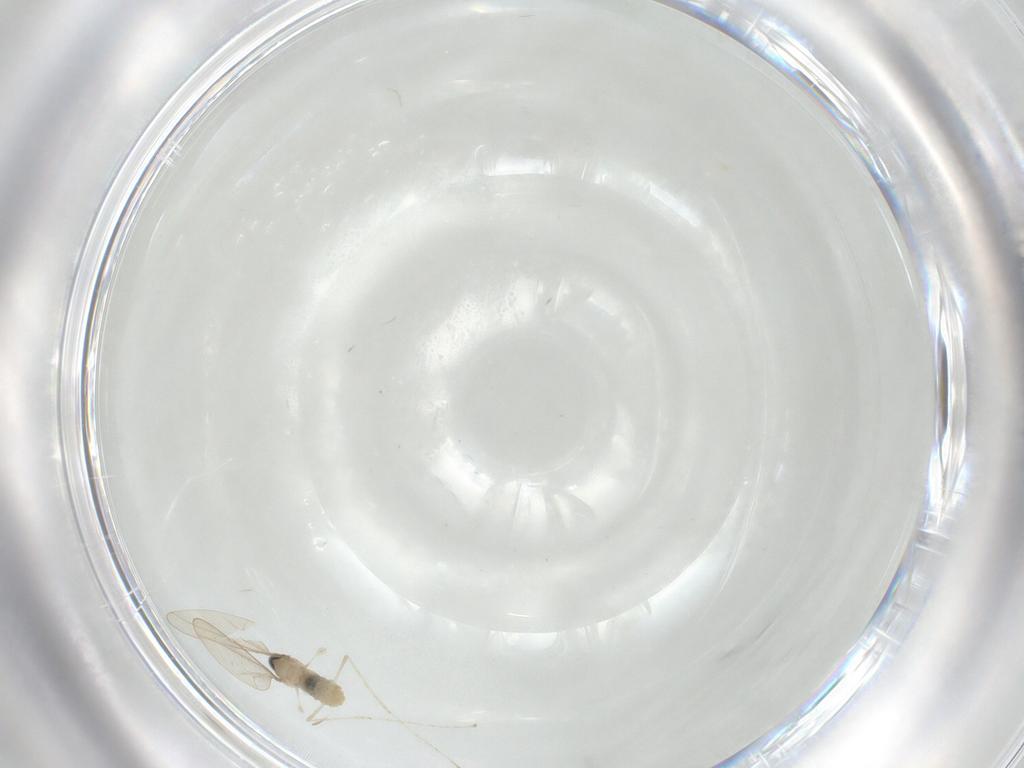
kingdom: Animalia
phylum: Arthropoda
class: Insecta
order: Diptera
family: Cecidomyiidae
